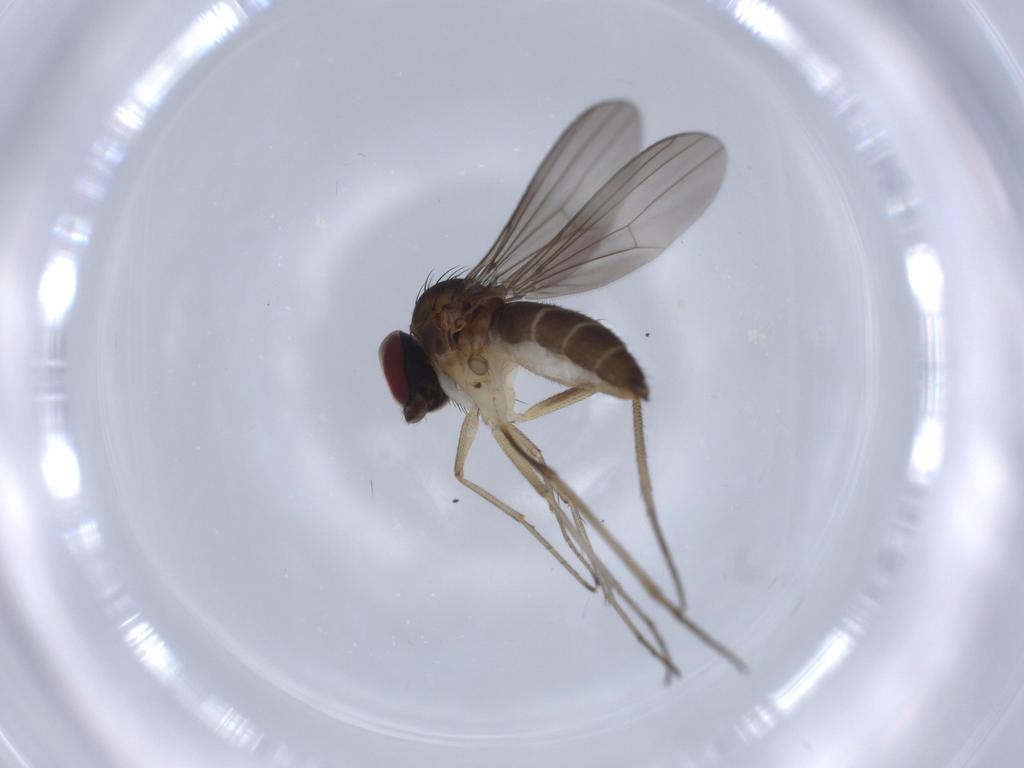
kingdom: Animalia
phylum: Arthropoda
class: Insecta
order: Diptera
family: Dolichopodidae
